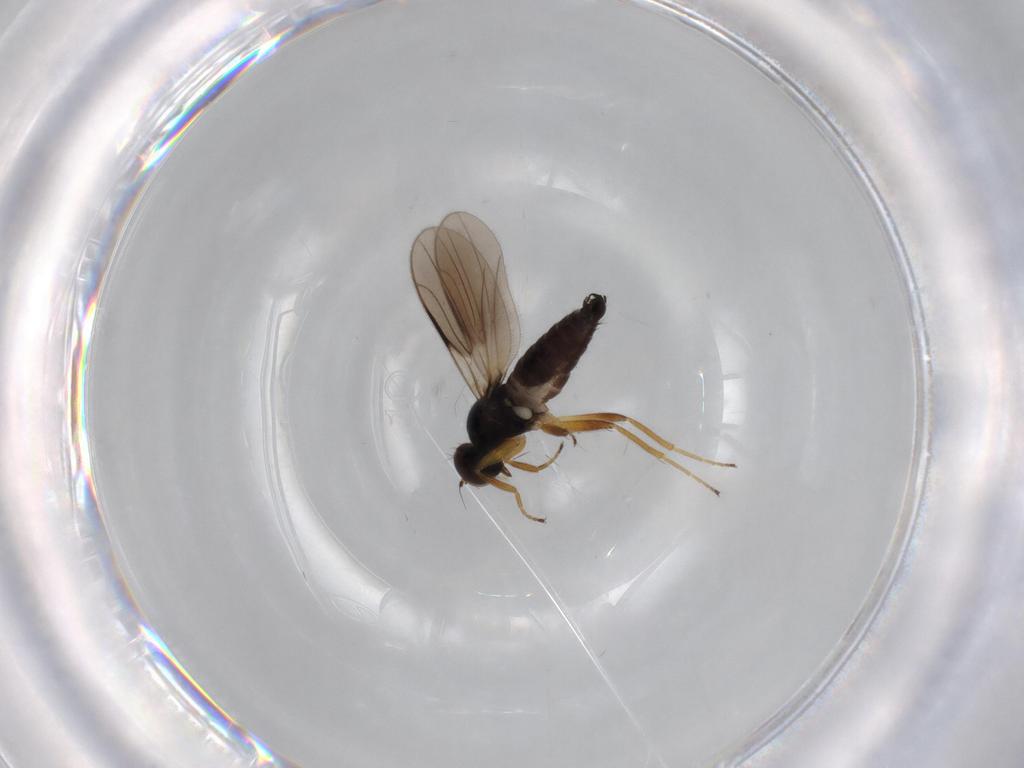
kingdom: Animalia
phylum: Arthropoda
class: Insecta
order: Diptera
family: Hybotidae
